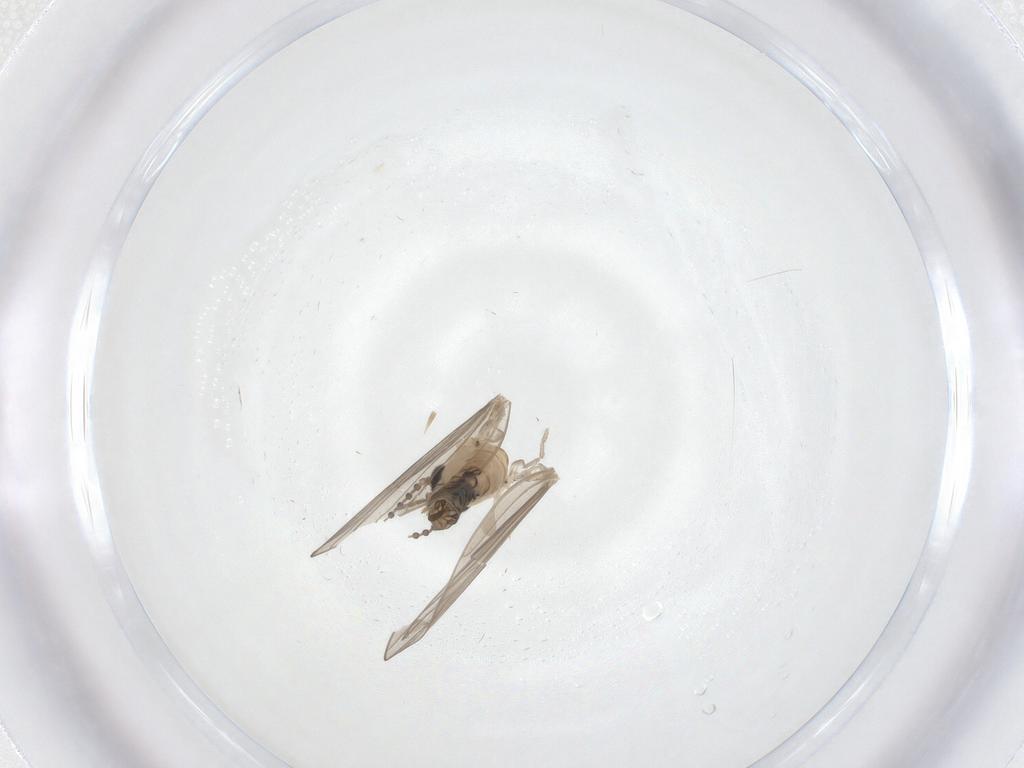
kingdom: Animalia
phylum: Arthropoda
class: Insecta
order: Diptera
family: Psychodidae
